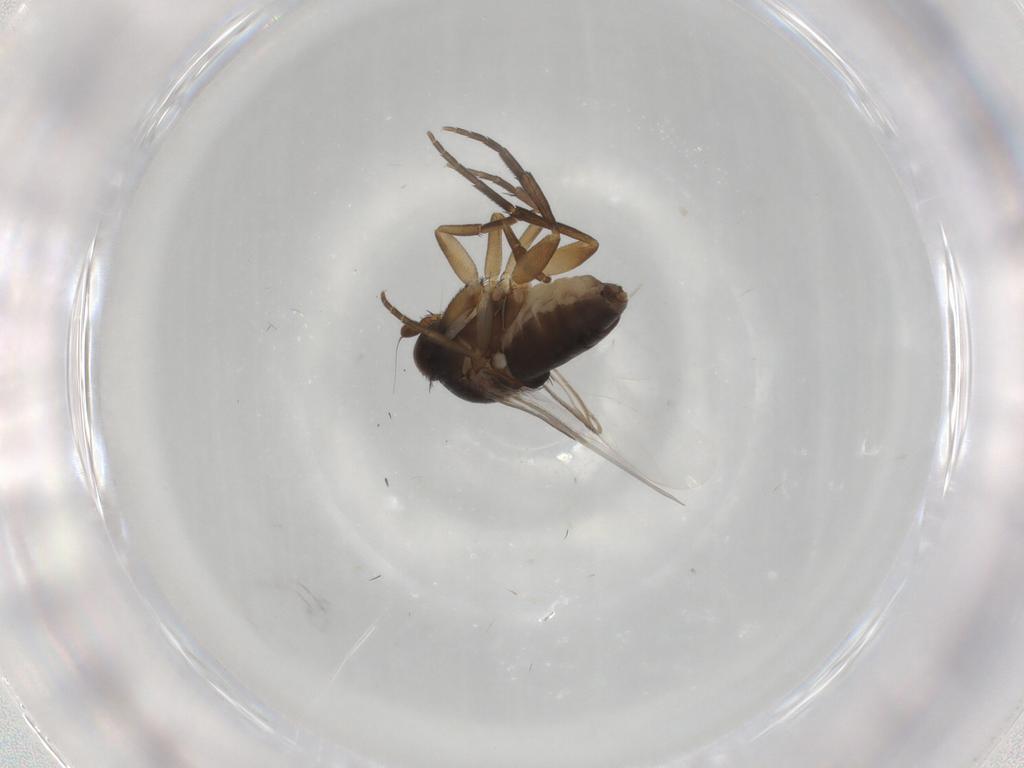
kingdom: Animalia
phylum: Arthropoda
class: Insecta
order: Diptera
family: Phoridae
